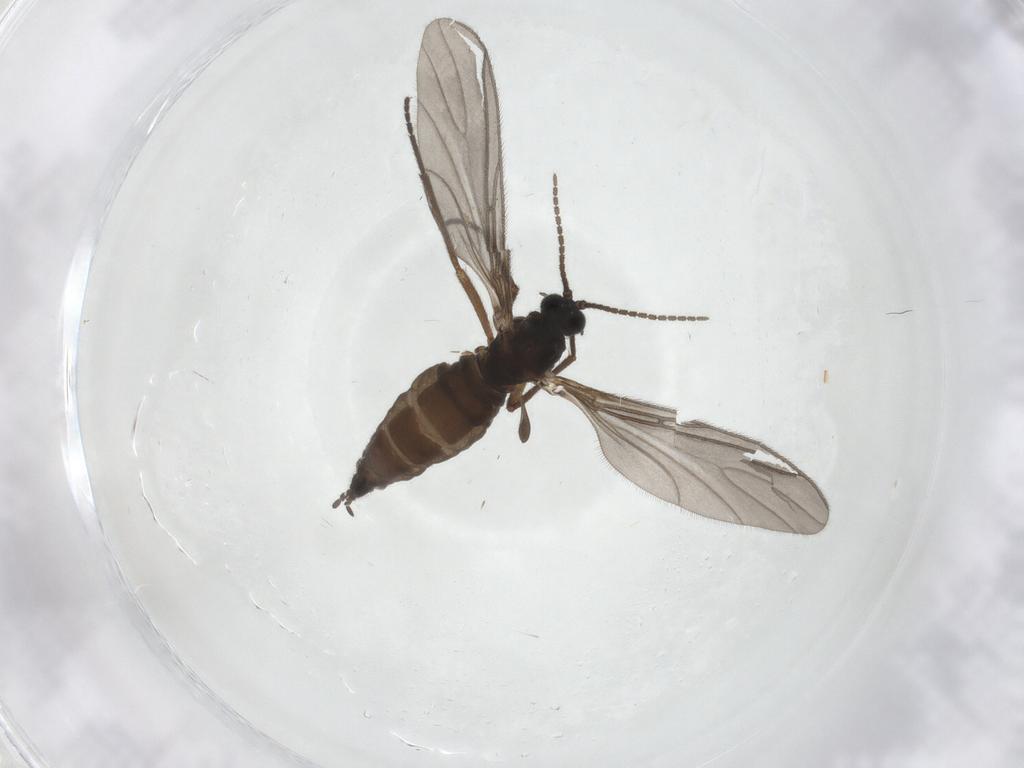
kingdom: Animalia
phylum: Arthropoda
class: Insecta
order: Diptera
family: Sciaridae
